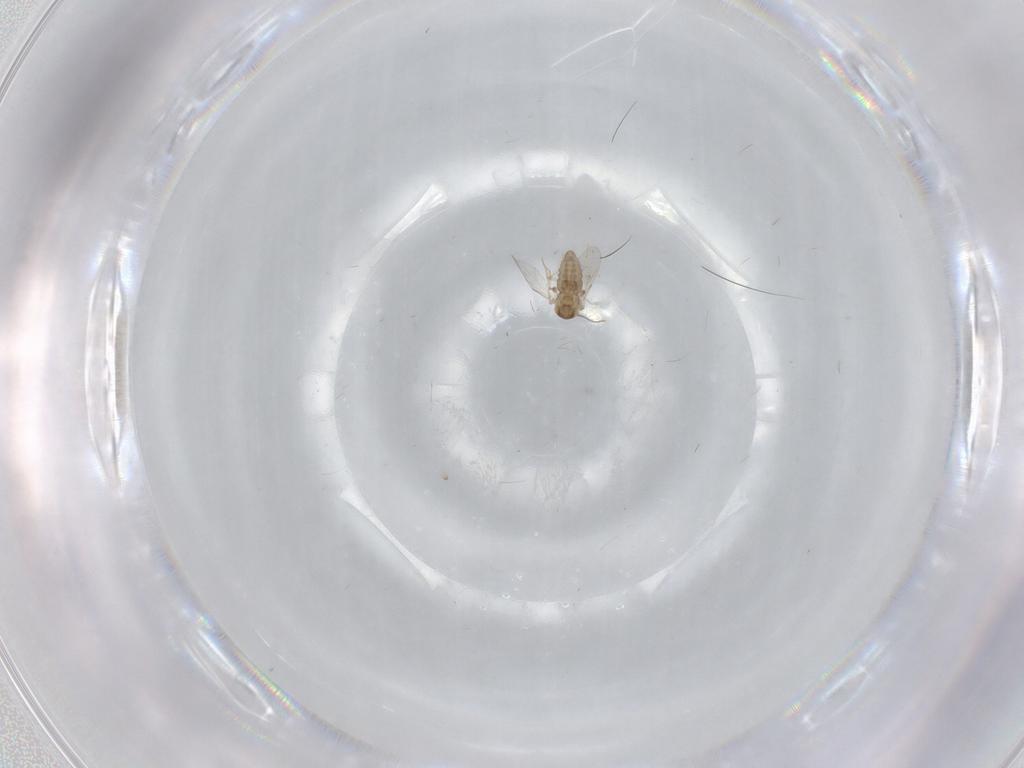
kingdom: Animalia
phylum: Arthropoda
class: Insecta
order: Diptera
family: Ceratopogonidae
